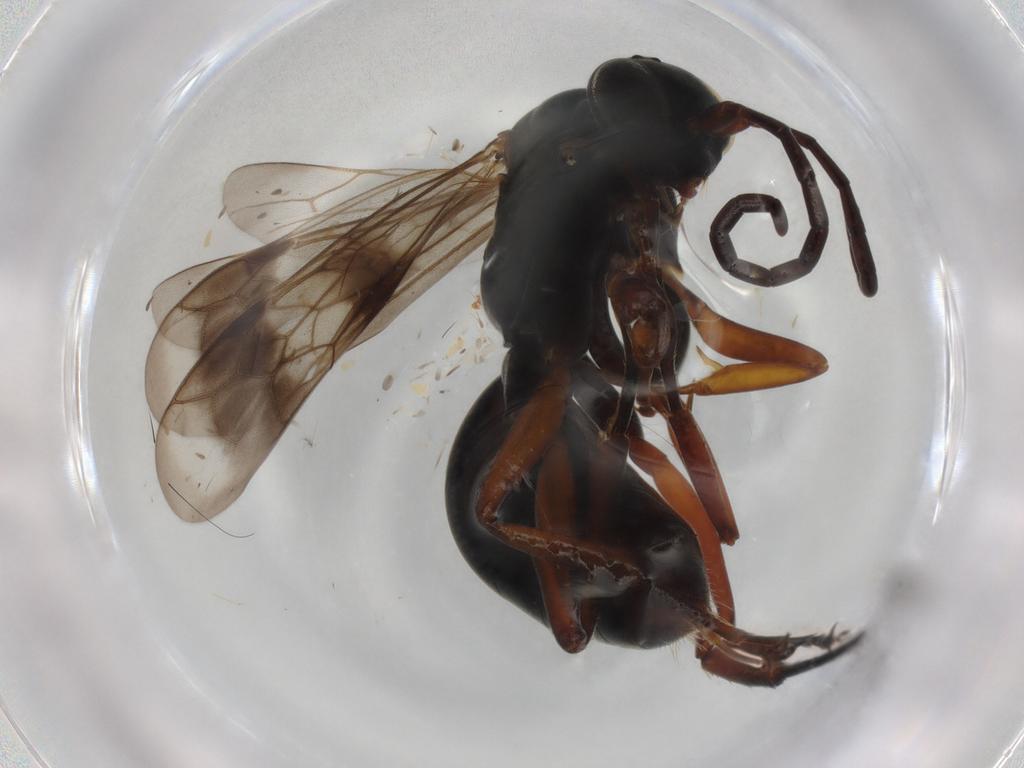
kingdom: Animalia
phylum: Arthropoda
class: Insecta
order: Hymenoptera
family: Pompilidae
